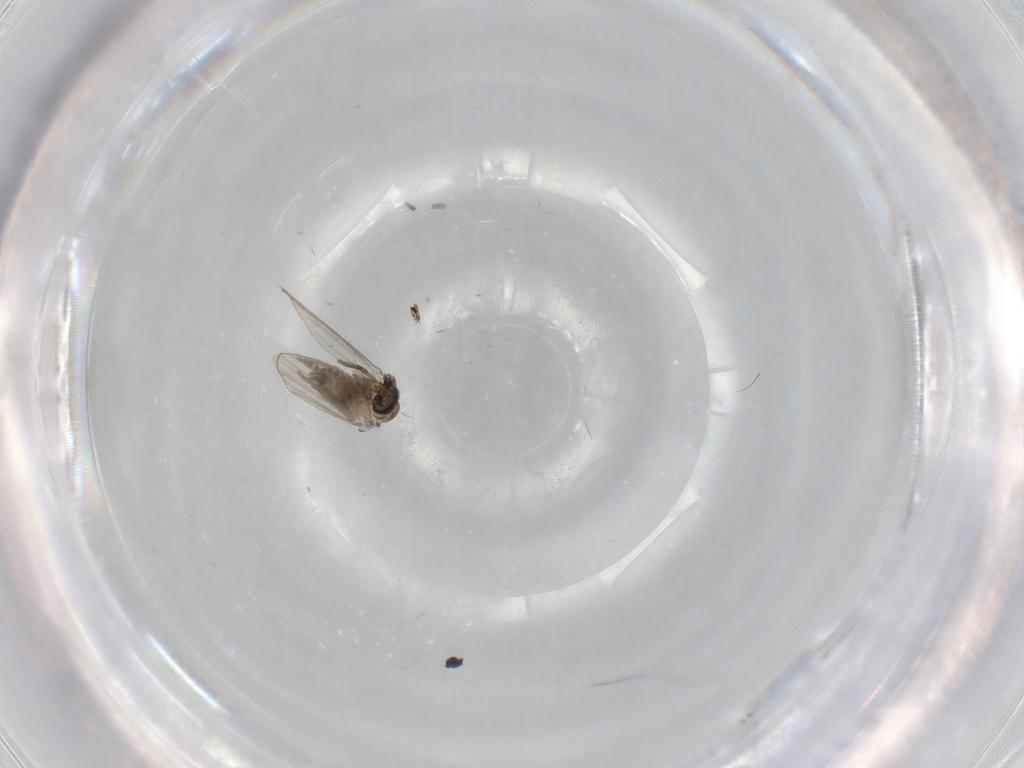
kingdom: Animalia
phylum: Arthropoda
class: Insecta
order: Diptera
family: Psychodidae
